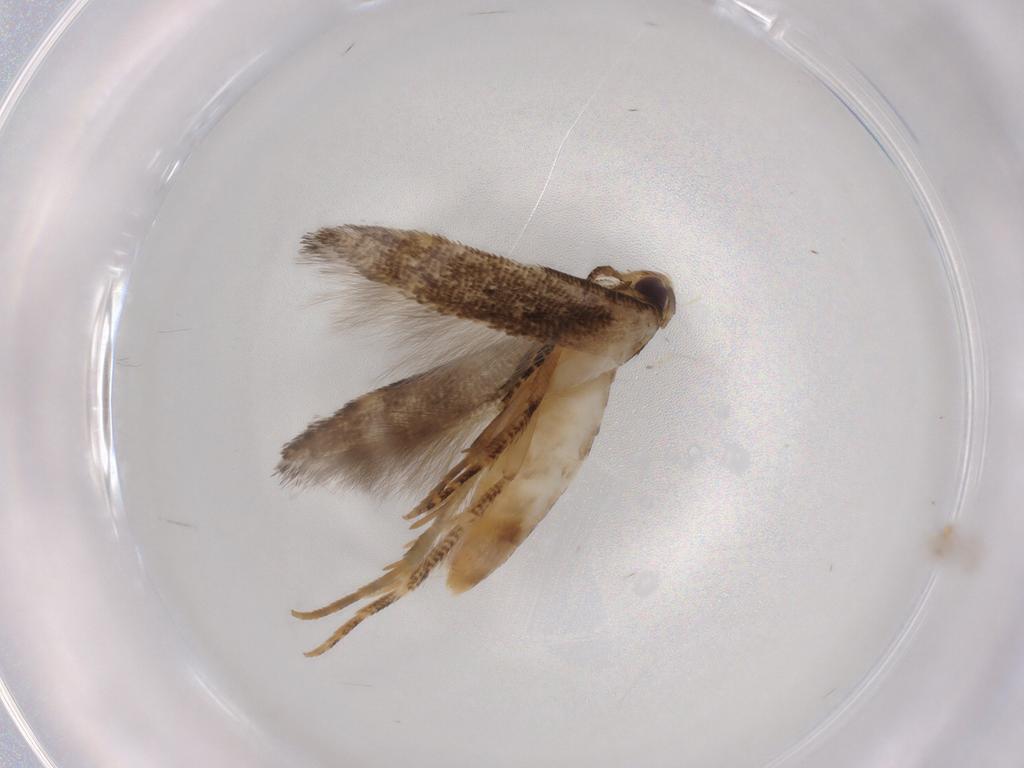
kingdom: Animalia
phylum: Arthropoda
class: Insecta
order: Lepidoptera
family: Cosmopterigidae
